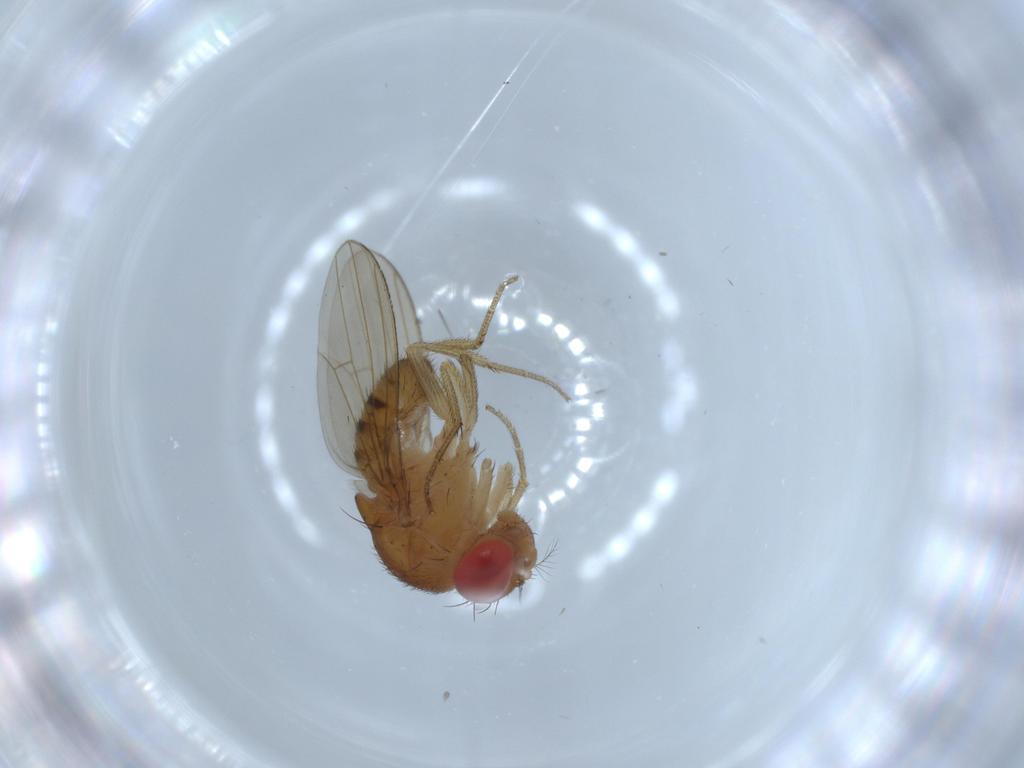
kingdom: Animalia
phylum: Arthropoda
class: Insecta
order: Diptera
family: Drosophilidae
